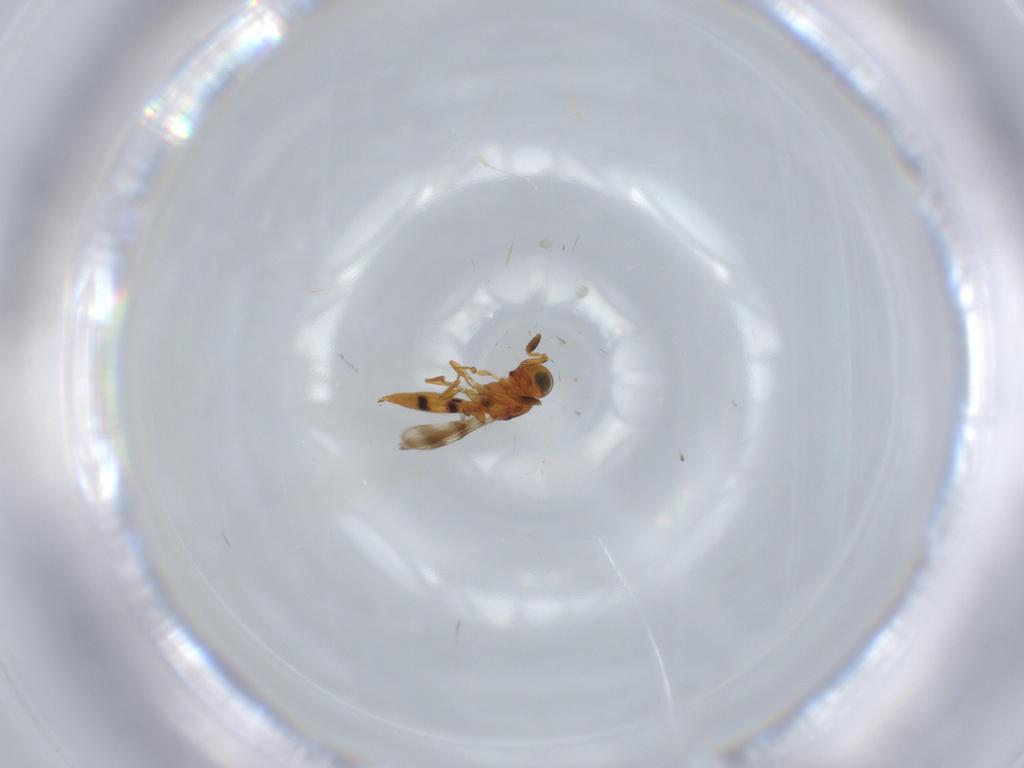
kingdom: Animalia
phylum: Arthropoda
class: Insecta
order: Hymenoptera
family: Scelionidae
